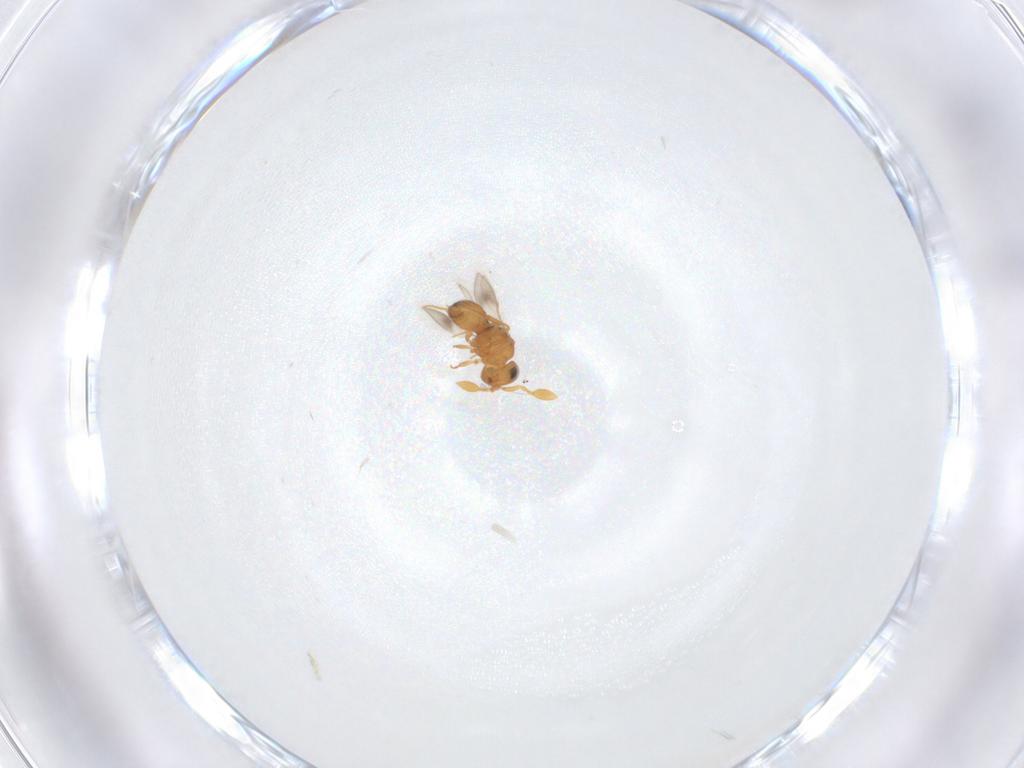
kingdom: Animalia
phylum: Arthropoda
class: Insecta
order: Hymenoptera
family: Scelionidae
